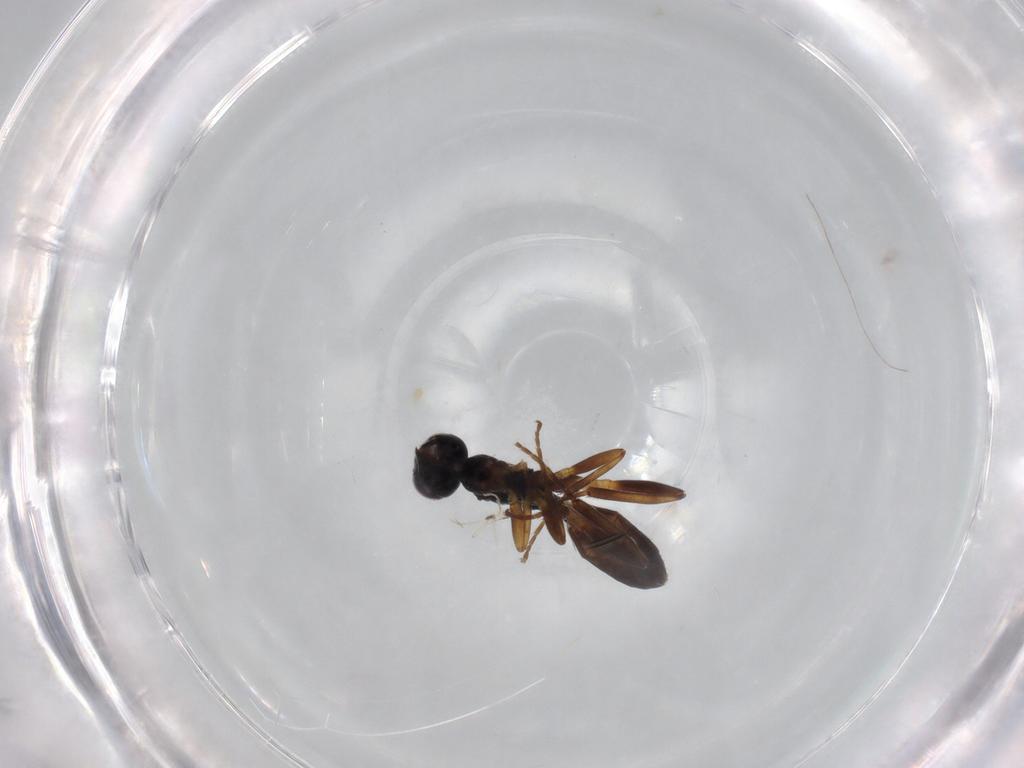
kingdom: Animalia
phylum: Arthropoda
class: Insecta
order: Hymenoptera
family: Ichneumonidae
